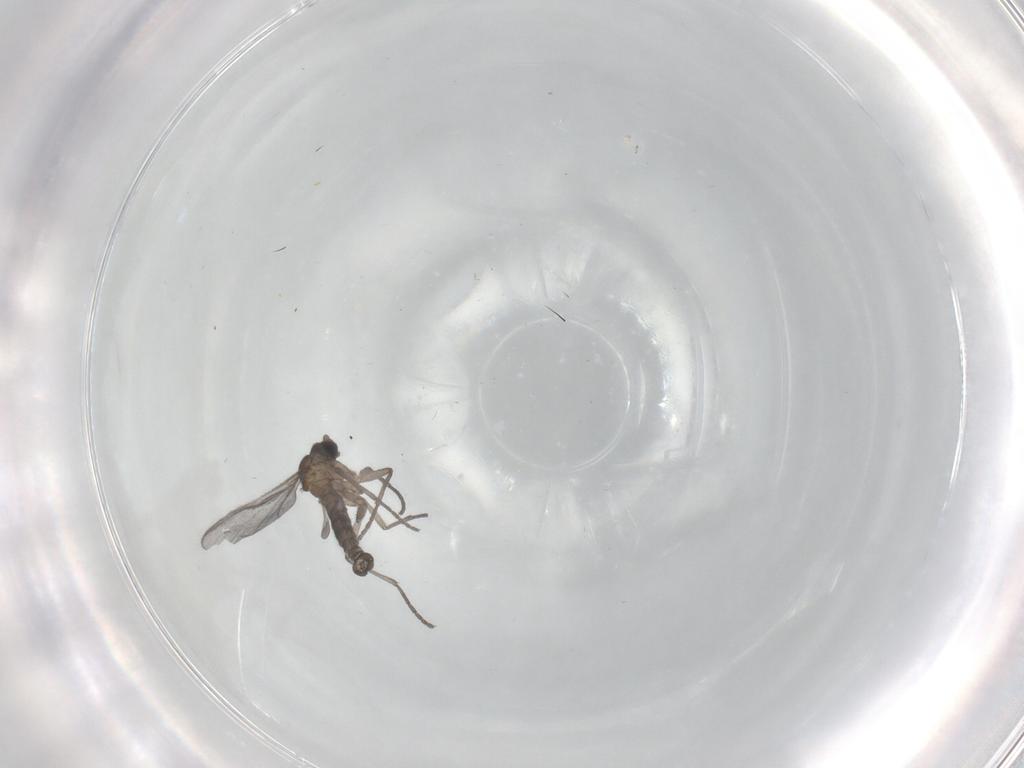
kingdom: Animalia
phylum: Arthropoda
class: Insecta
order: Diptera
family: Sciaridae
